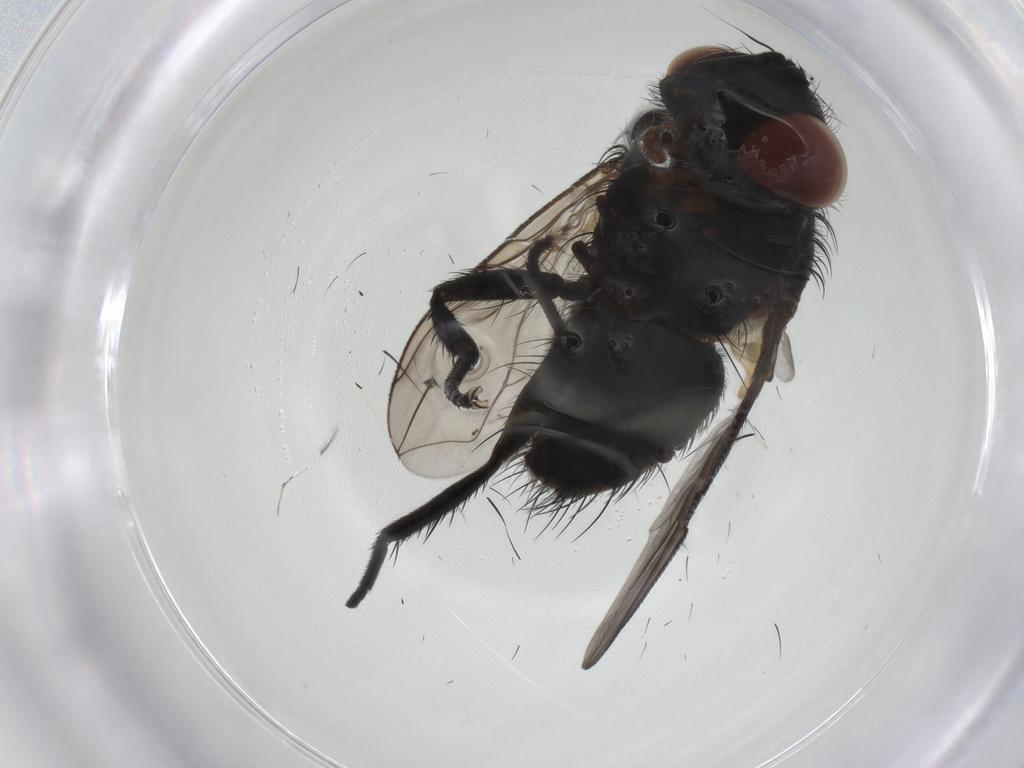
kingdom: Animalia
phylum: Arthropoda
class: Insecta
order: Diptera
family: Tachinidae
